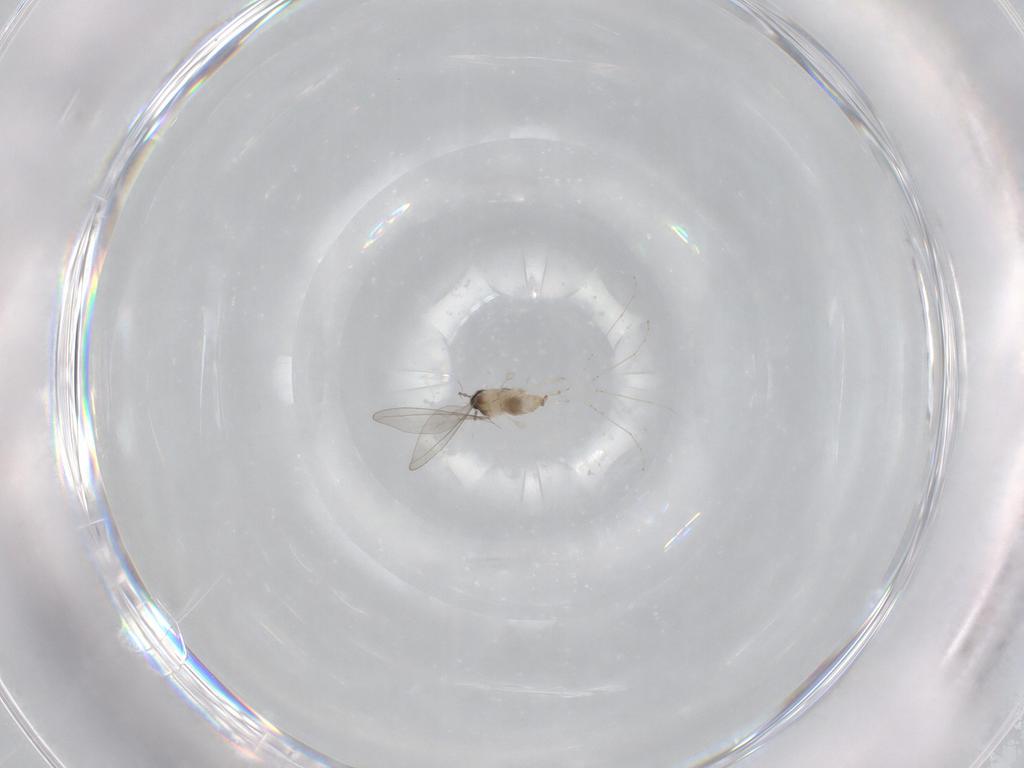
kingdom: Animalia
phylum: Arthropoda
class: Insecta
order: Diptera
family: Cecidomyiidae
